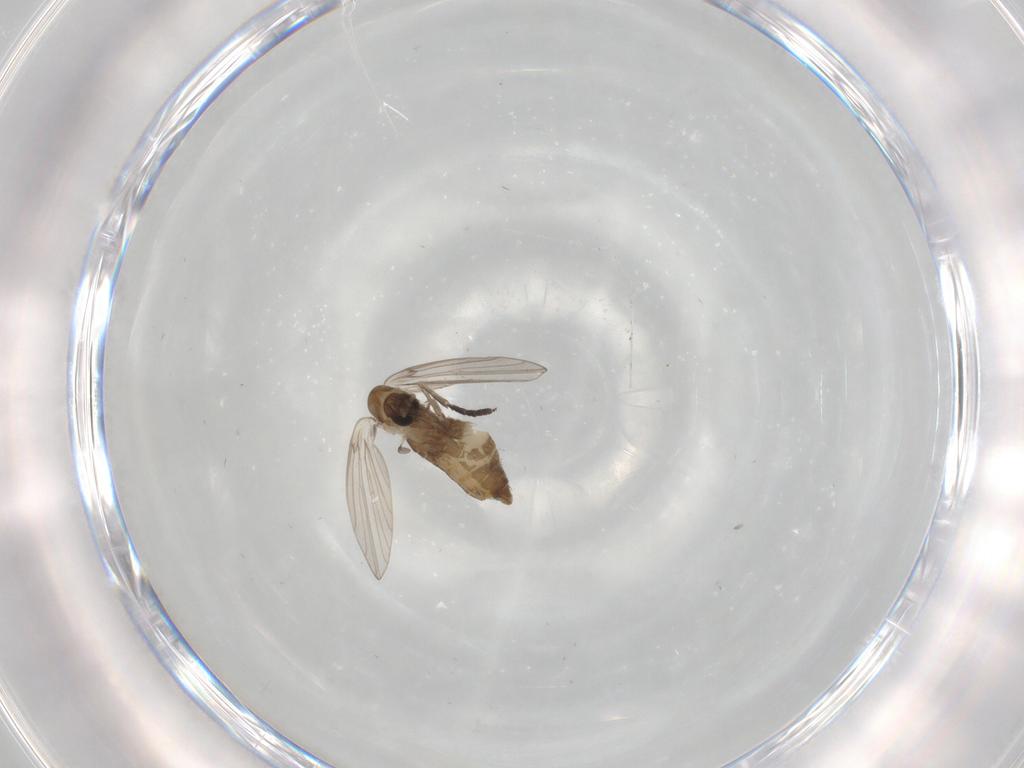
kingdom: Animalia
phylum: Arthropoda
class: Insecta
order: Diptera
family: Psychodidae
